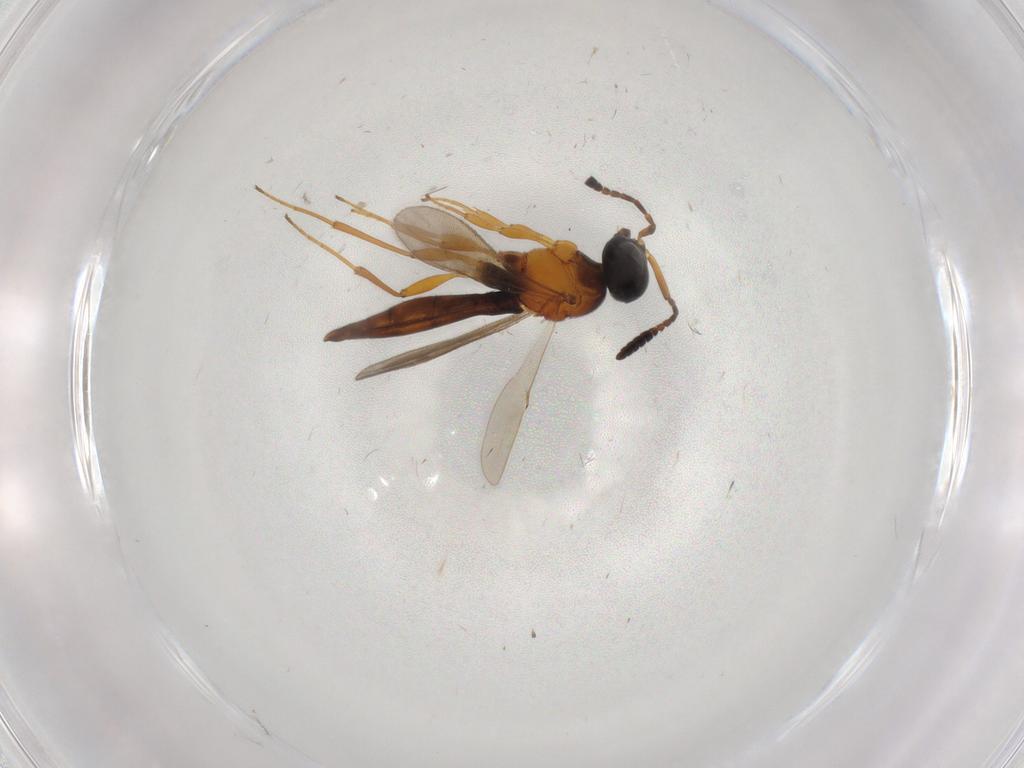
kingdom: Animalia
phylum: Arthropoda
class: Insecta
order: Hymenoptera
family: Scelionidae
